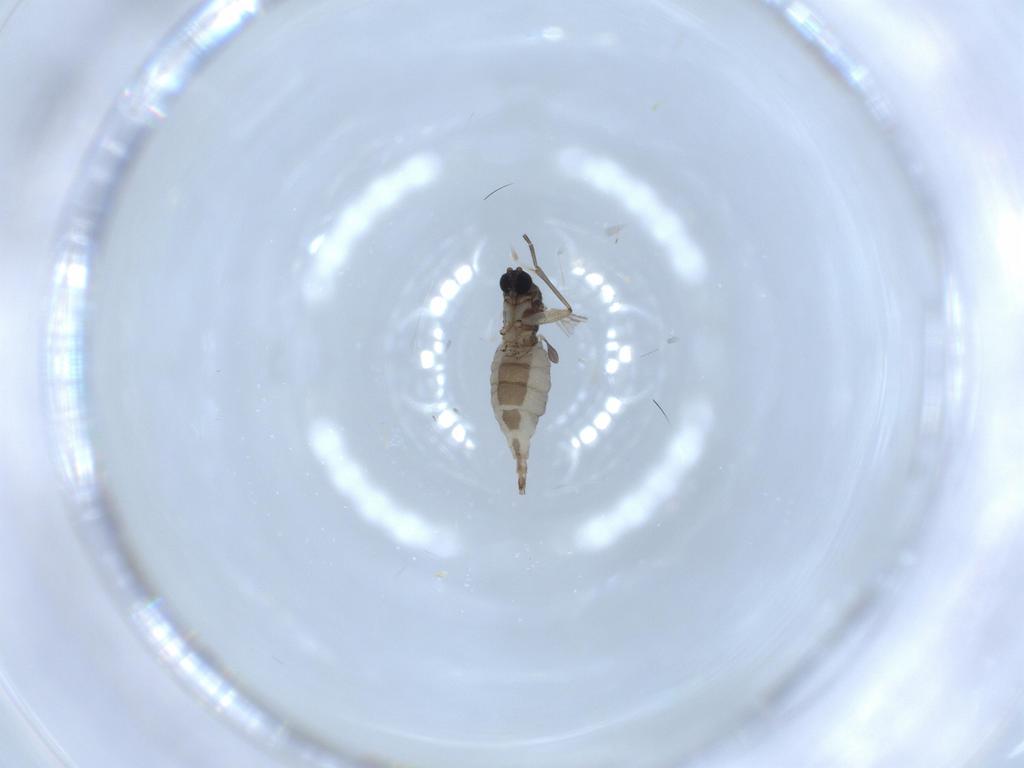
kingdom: Animalia
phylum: Arthropoda
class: Insecta
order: Diptera
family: Sciaridae
